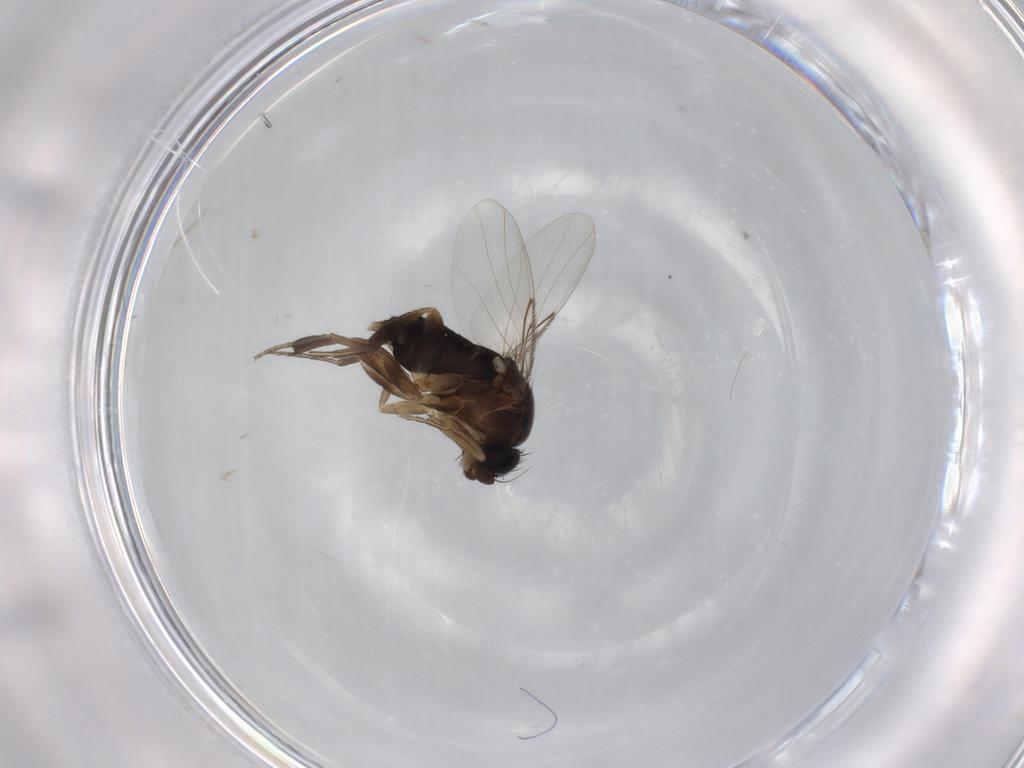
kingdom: Animalia
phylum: Arthropoda
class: Insecta
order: Diptera
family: Phoridae
